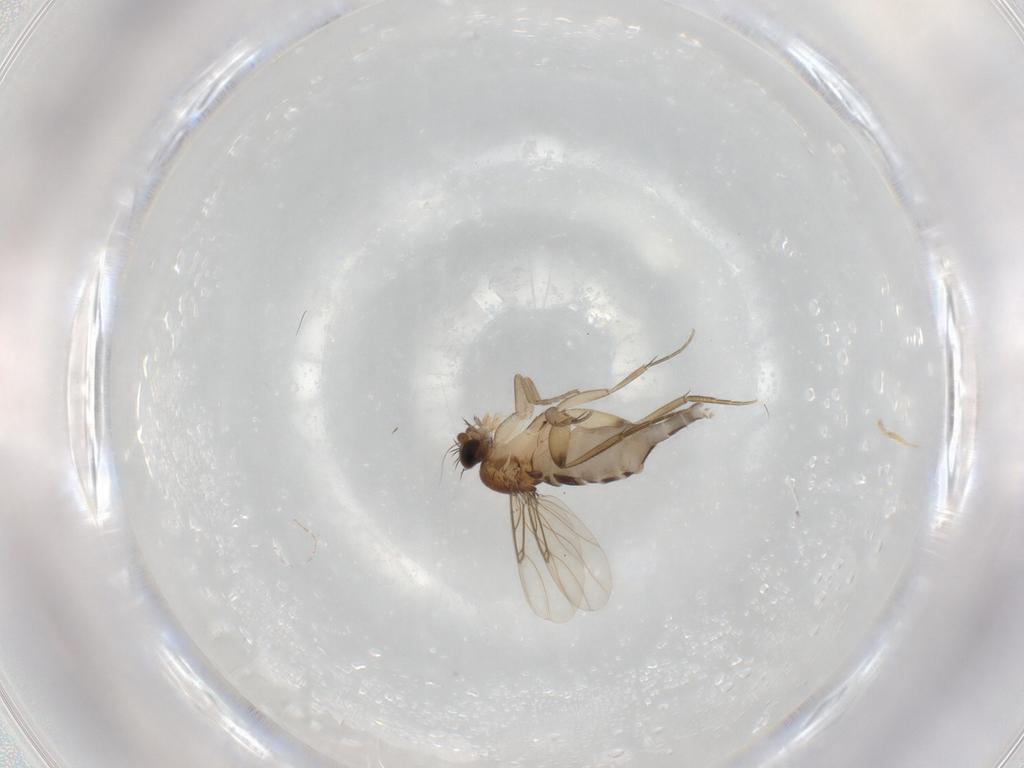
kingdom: Animalia
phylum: Arthropoda
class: Insecta
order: Diptera
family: Phoridae
